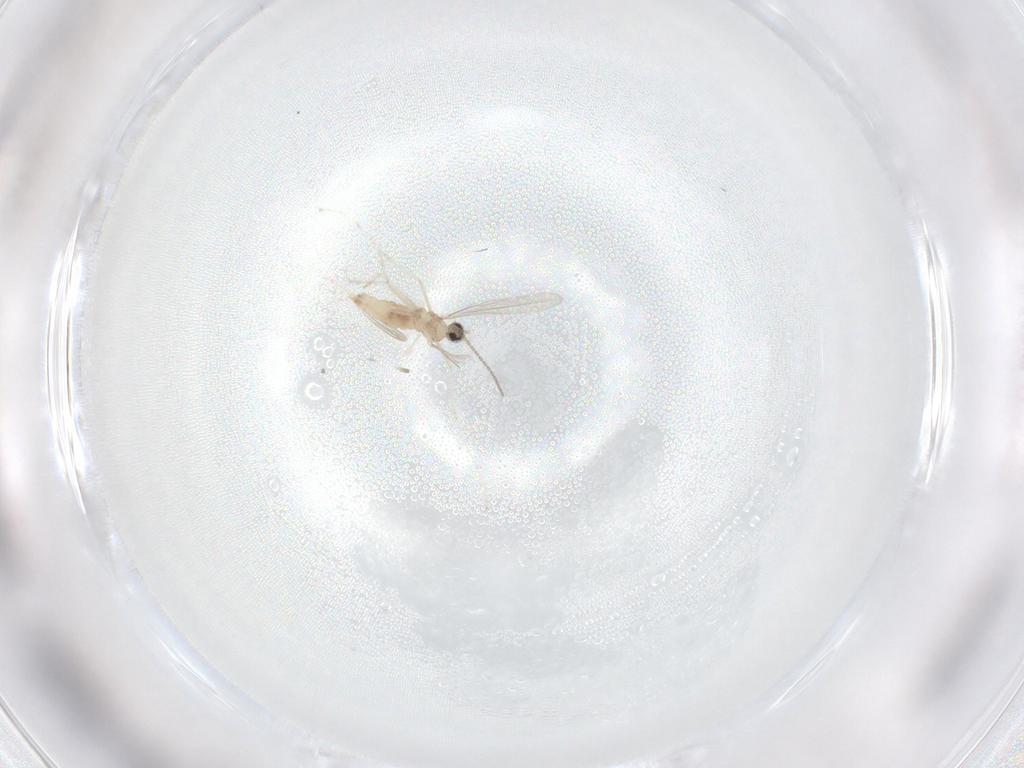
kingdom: Animalia
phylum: Arthropoda
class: Insecta
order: Diptera
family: Cecidomyiidae
